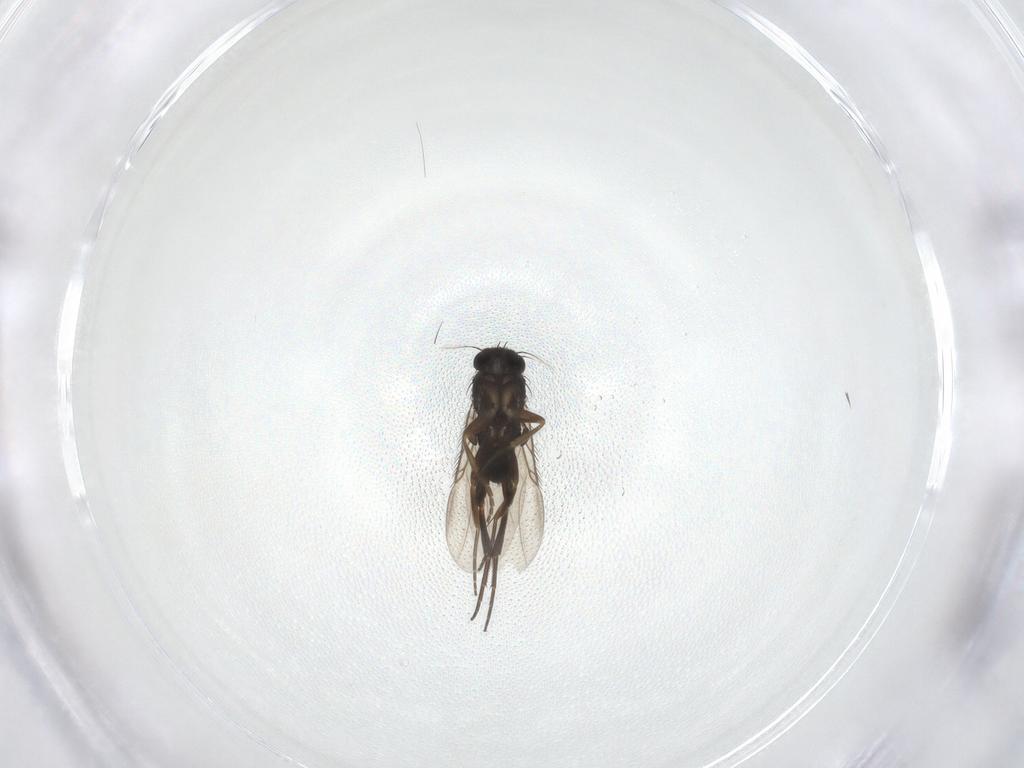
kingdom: Animalia
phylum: Arthropoda
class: Insecta
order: Diptera
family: Phoridae
